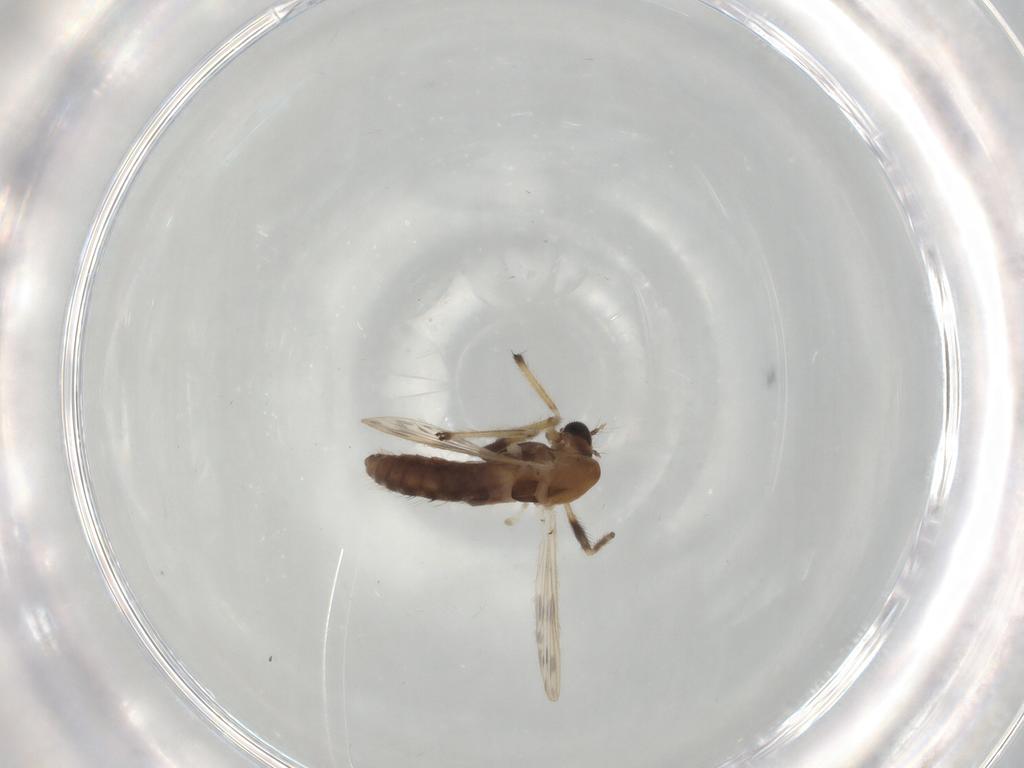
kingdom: Animalia
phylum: Arthropoda
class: Insecta
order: Diptera
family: Chironomidae
